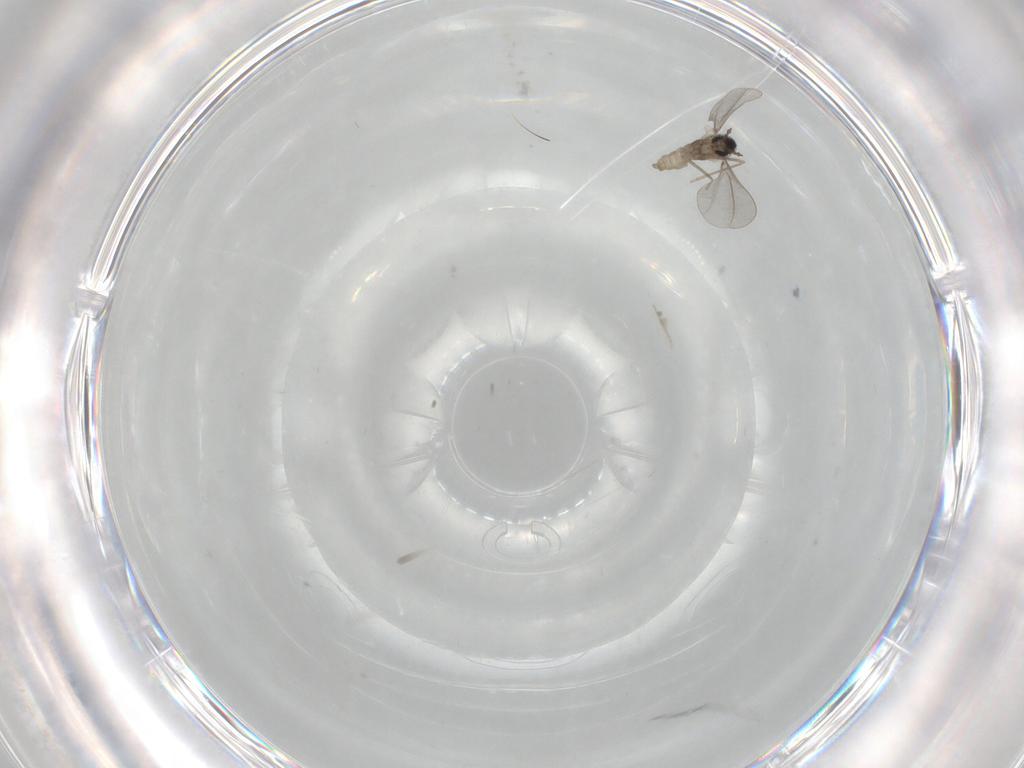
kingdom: Animalia
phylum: Arthropoda
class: Insecta
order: Diptera
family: Cecidomyiidae
